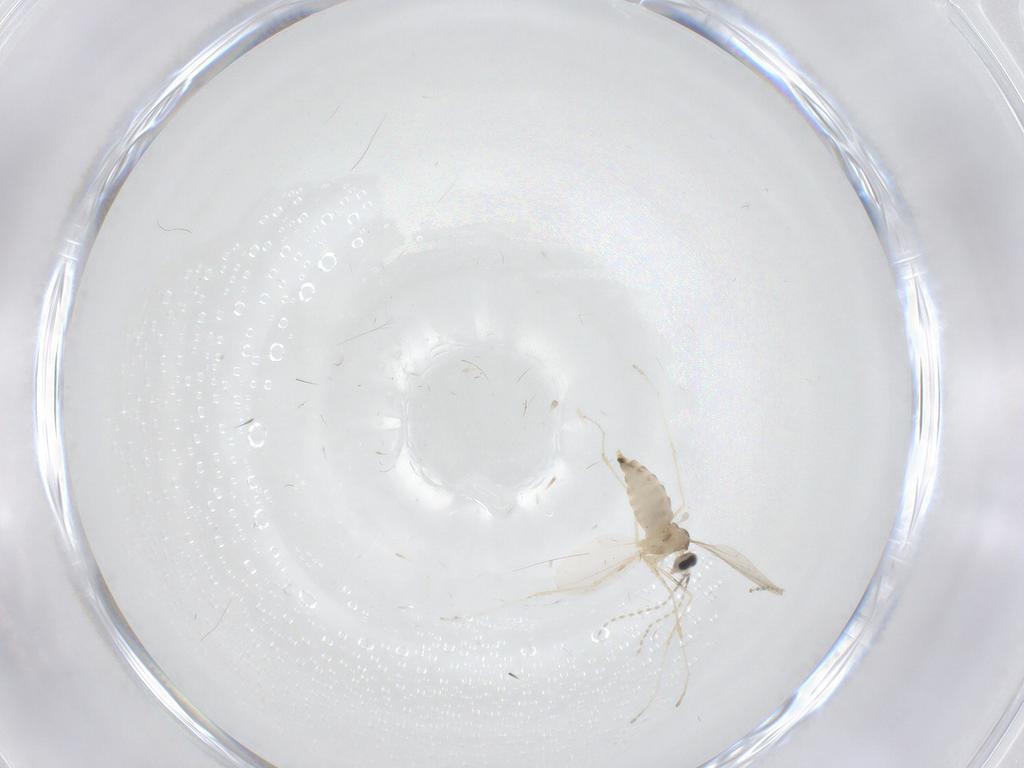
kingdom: Animalia
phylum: Arthropoda
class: Insecta
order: Diptera
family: Cecidomyiidae
